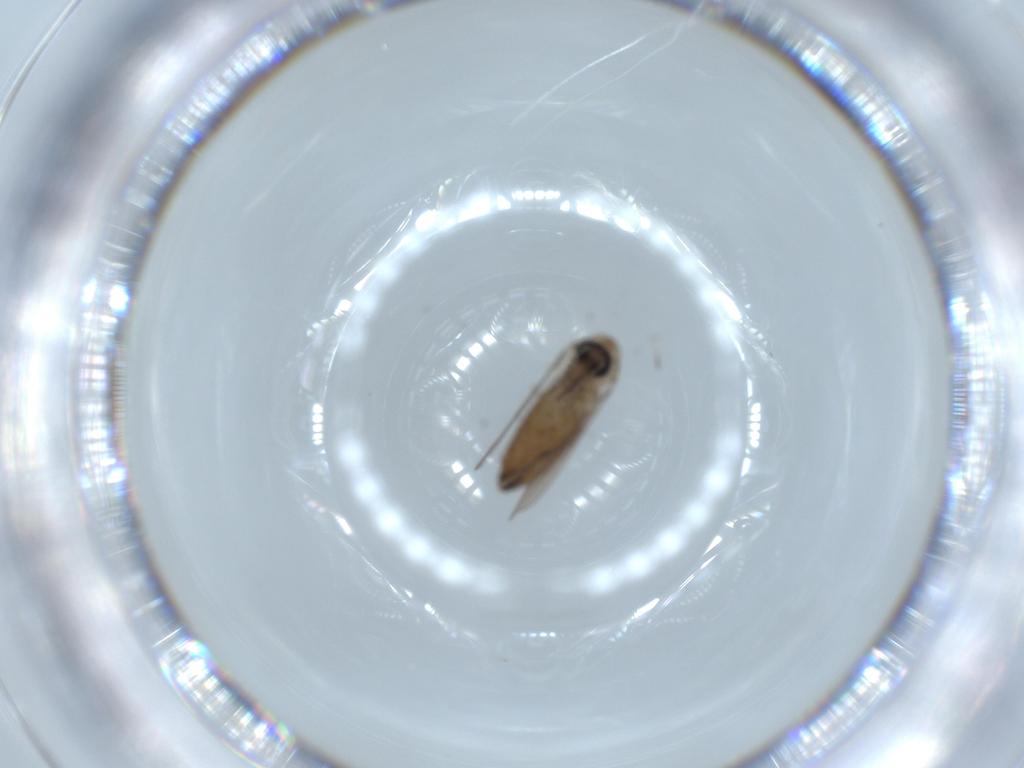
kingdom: Animalia
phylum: Arthropoda
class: Insecta
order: Diptera
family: Psychodidae
